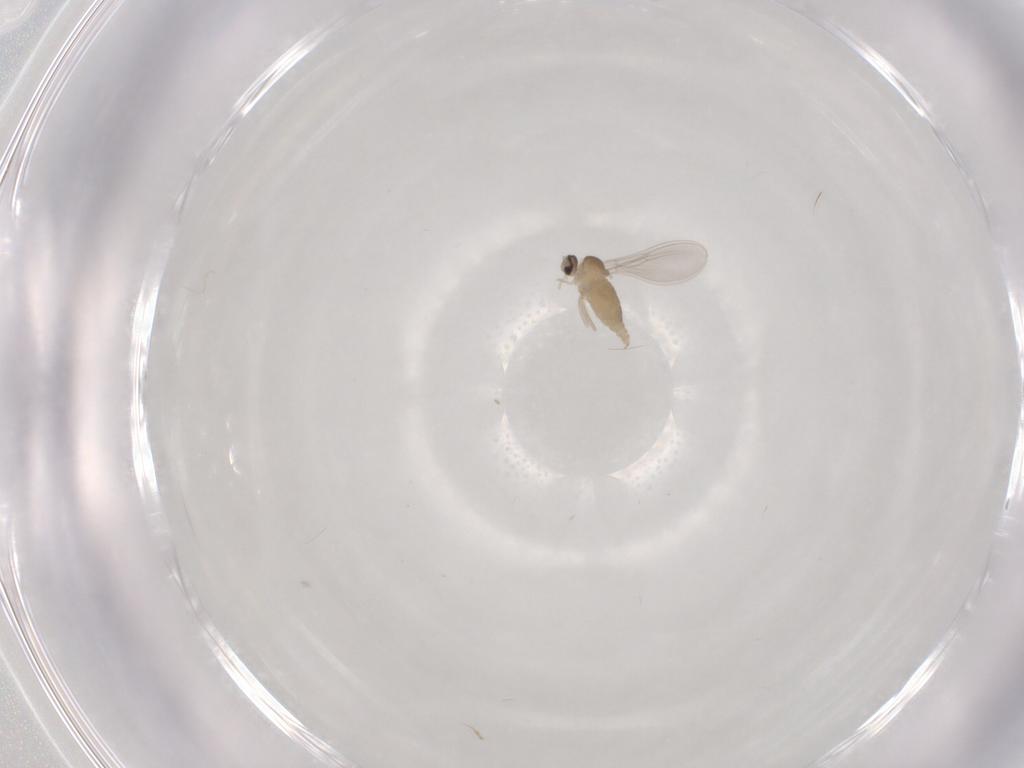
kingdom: Animalia
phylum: Arthropoda
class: Insecta
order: Diptera
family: Cecidomyiidae
